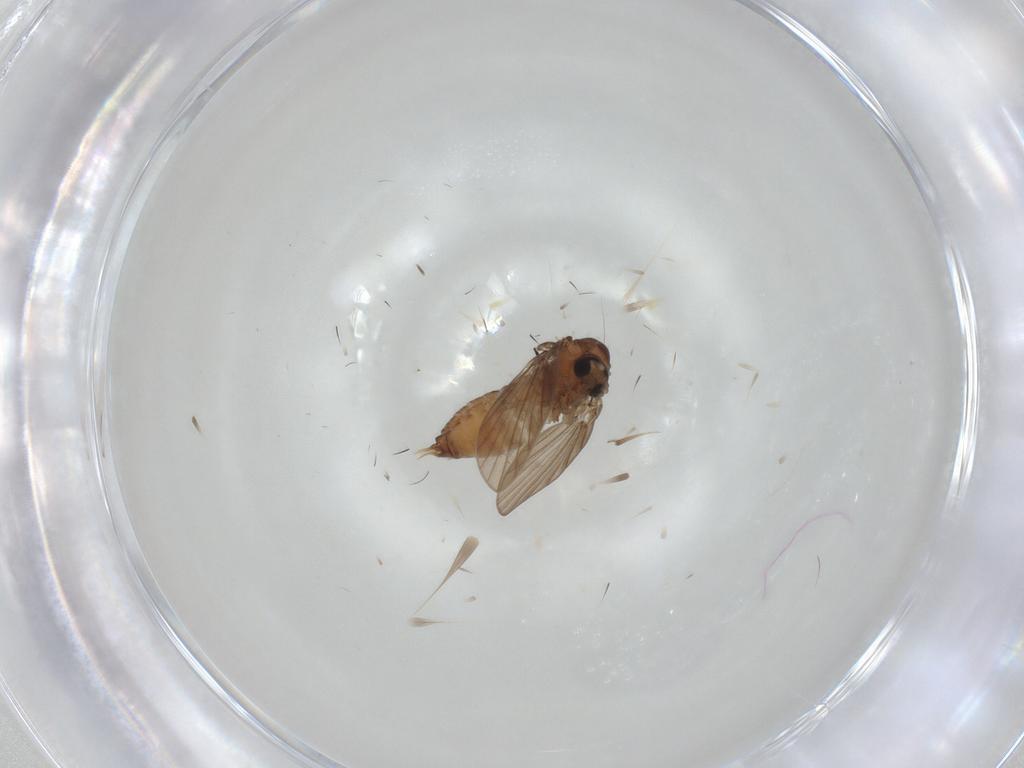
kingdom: Animalia
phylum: Arthropoda
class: Insecta
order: Diptera
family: Psychodidae
